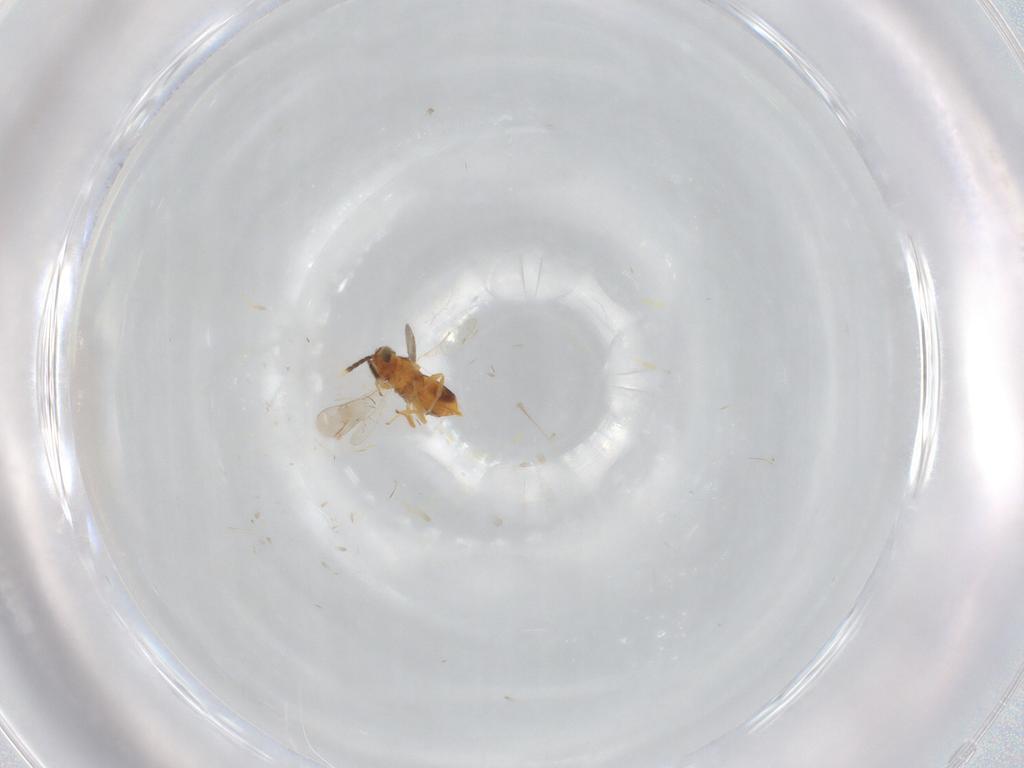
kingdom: Animalia
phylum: Arthropoda
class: Insecta
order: Hymenoptera
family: Aphelinidae
